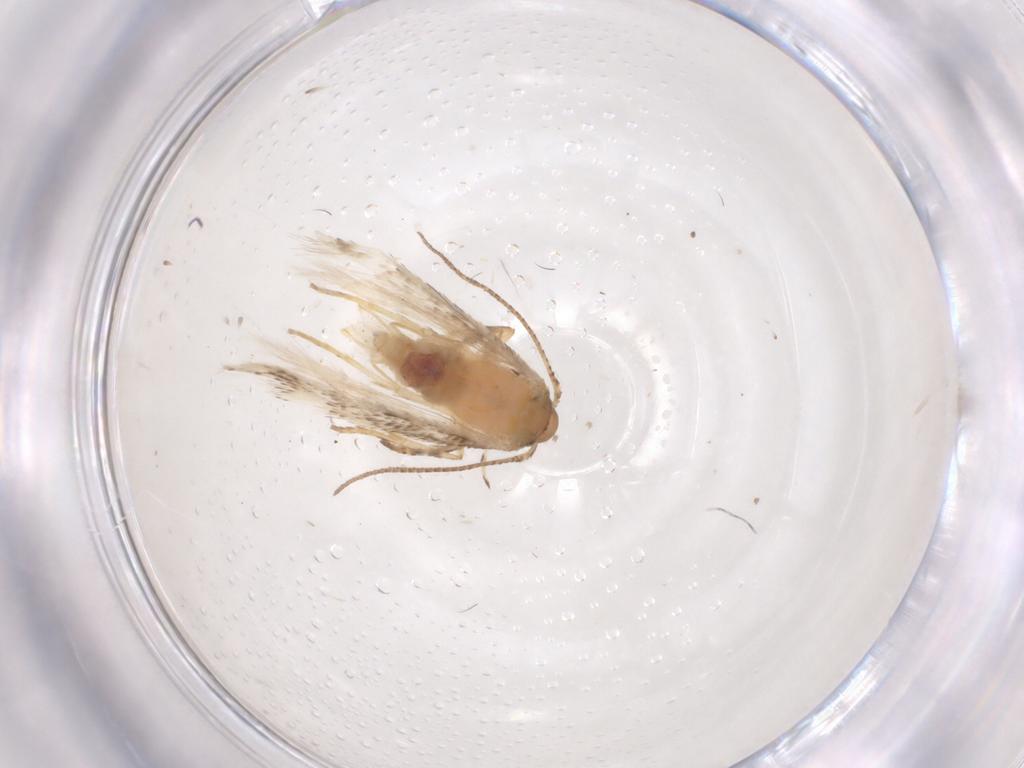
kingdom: Animalia
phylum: Arthropoda
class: Insecta
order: Lepidoptera
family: Gelechiidae
